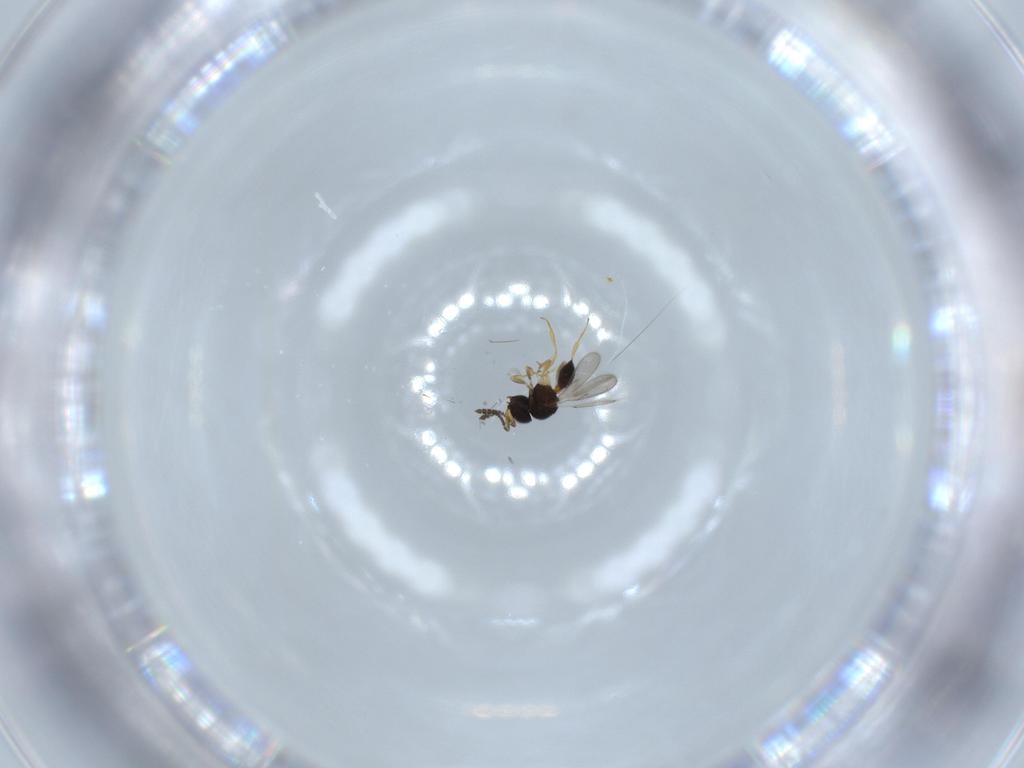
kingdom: Animalia
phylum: Arthropoda
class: Insecta
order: Hymenoptera
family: Scelionidae
